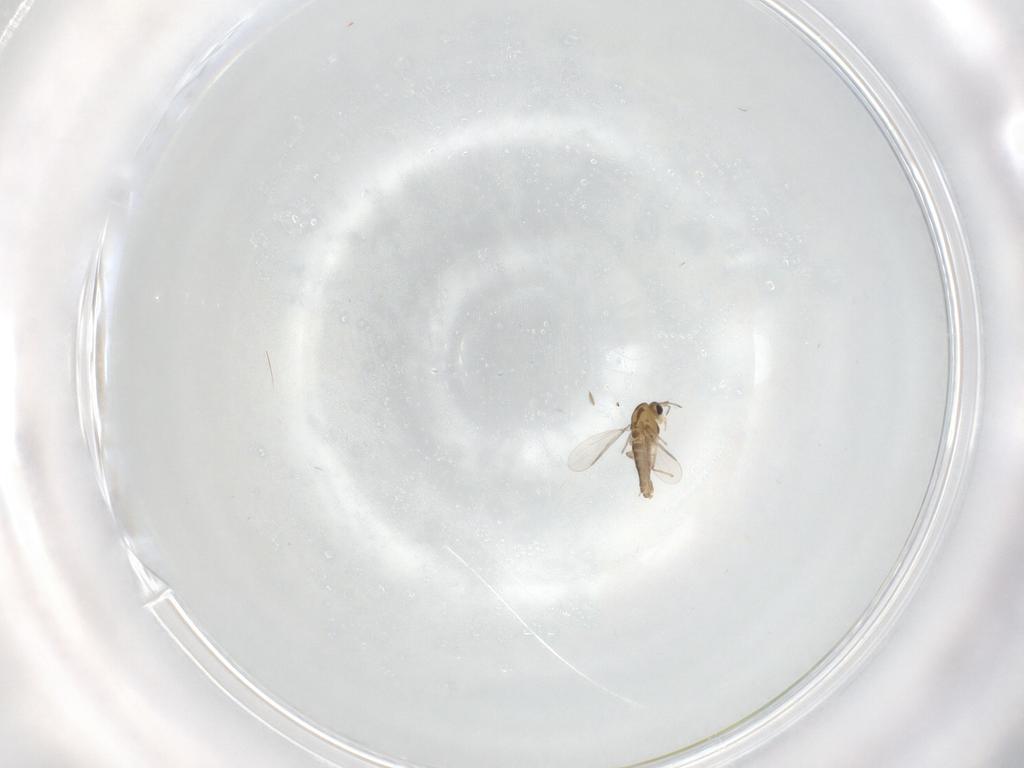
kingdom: Animalia
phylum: Arthropoda
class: Insecta
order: Diptera
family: Chironomidae
